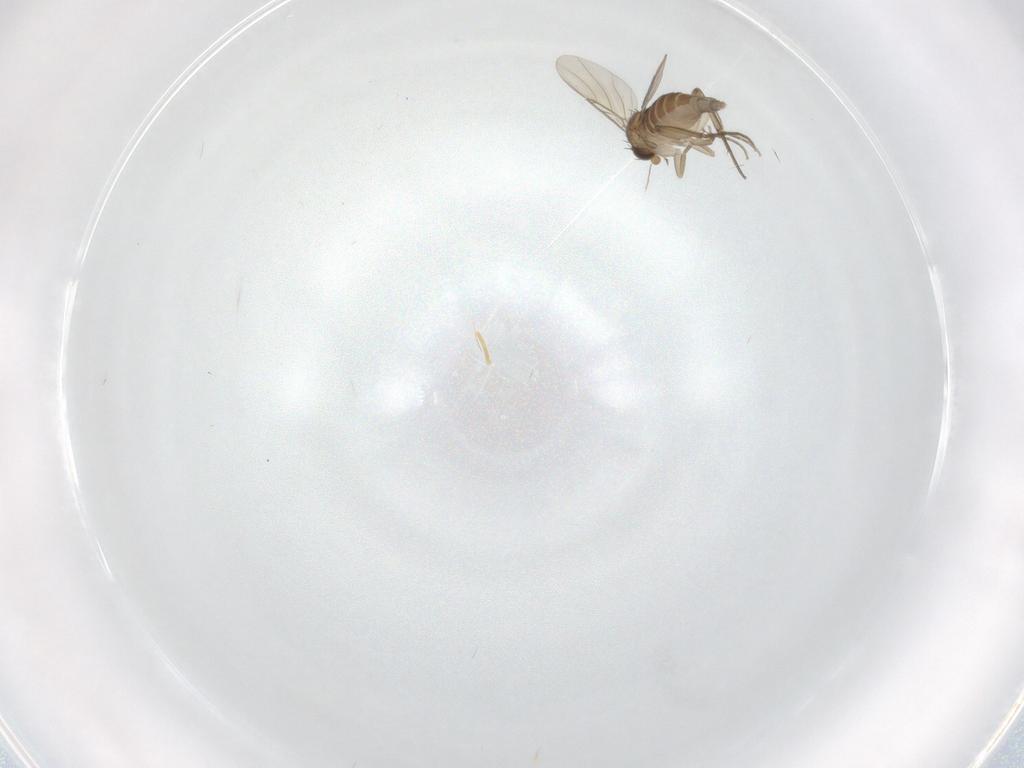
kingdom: Animalia
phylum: Arthropoda
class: Insecta
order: Diptera
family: Phoridae
